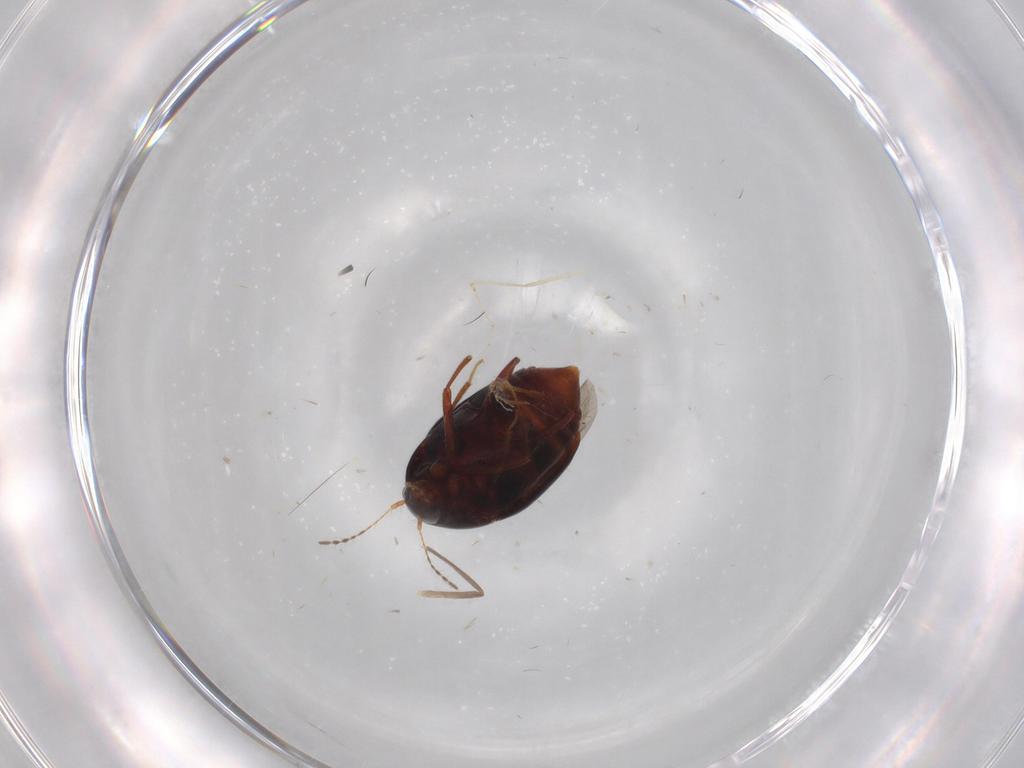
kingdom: Animalia
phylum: Arthropoda
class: Insecta
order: Coleoptera
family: Staphylinidae
